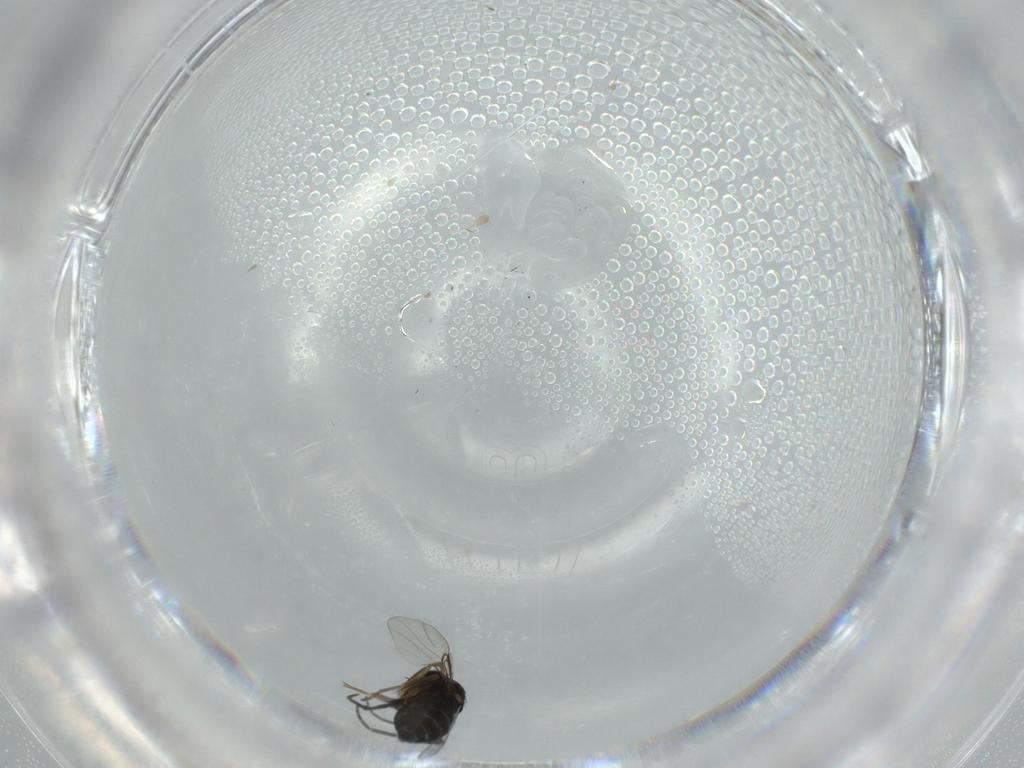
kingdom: Animalia
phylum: Arthropoda
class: Insecta
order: Diptera
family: Phoridae
